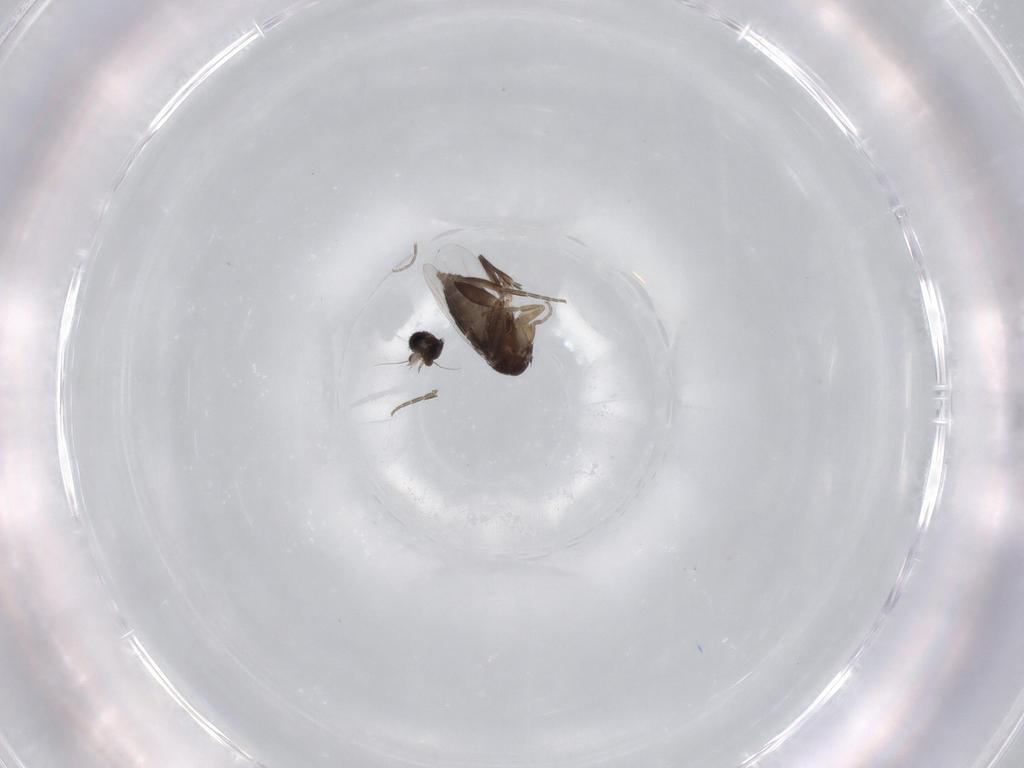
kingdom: Animalia
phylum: Arthropoda
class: Insecta
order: Diptera
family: Phoridae
